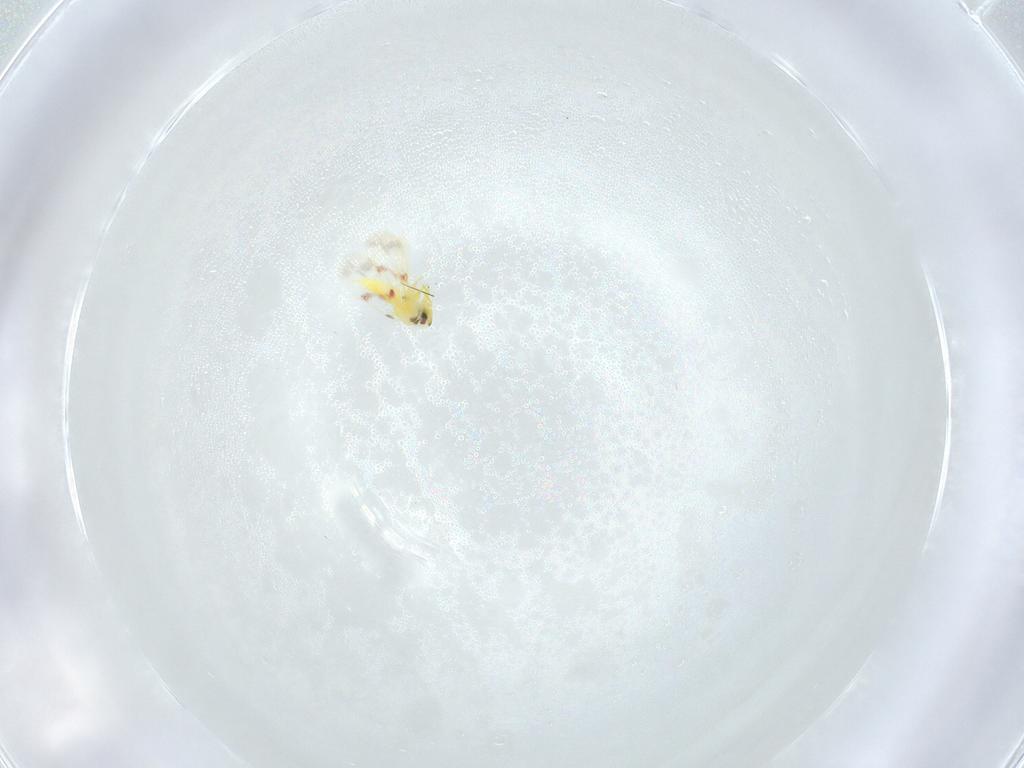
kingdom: Animalia
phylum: Arthropoda
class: Insecta
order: Hemiptera
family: Aleyrodidae
